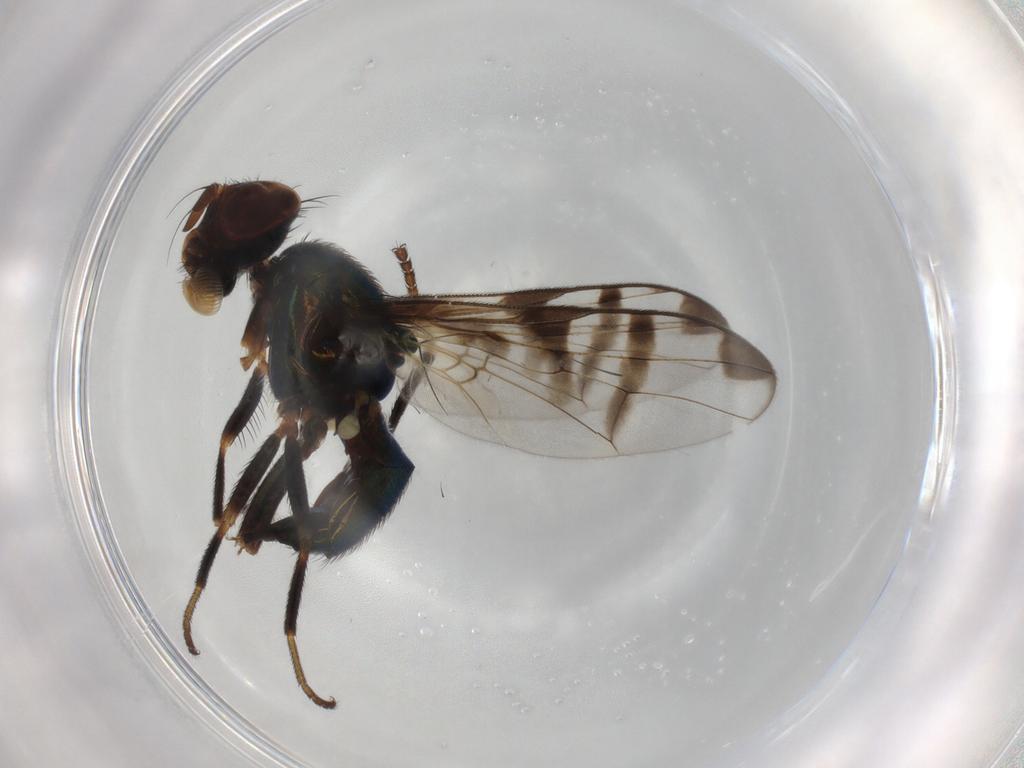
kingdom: Animalia
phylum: Arthropoda
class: Insecta
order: Diptera
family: Platystomatidae
